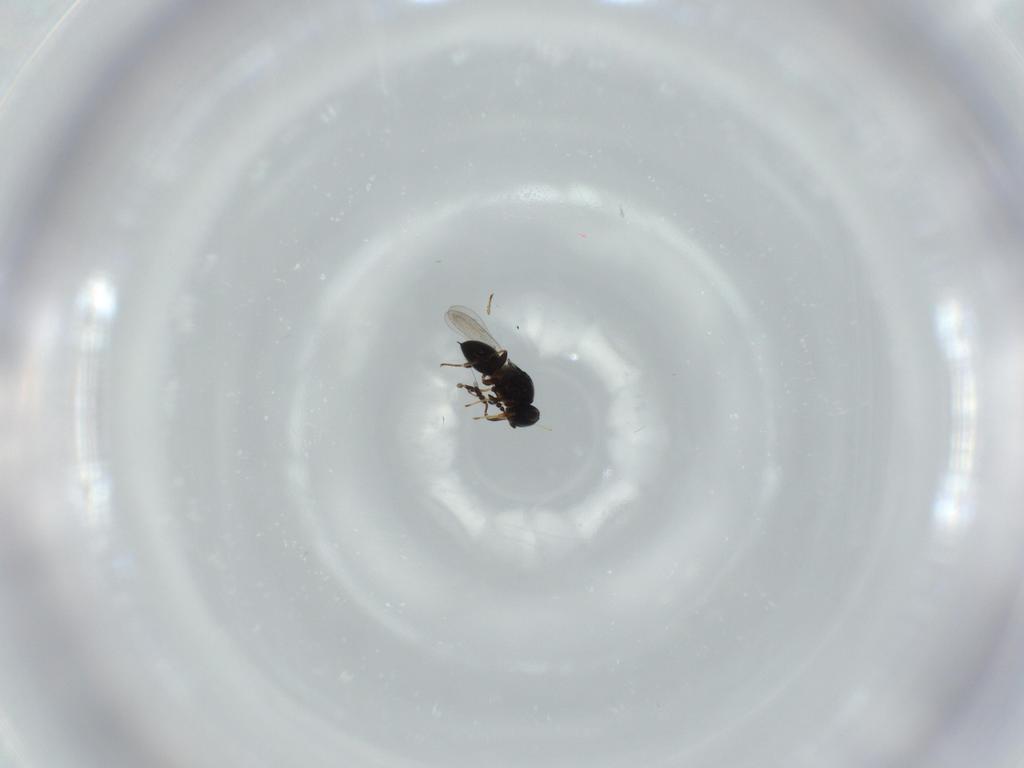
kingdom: Animalia
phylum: Arthropoda
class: Insecta
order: Hymenoptera
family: Platygastridae
